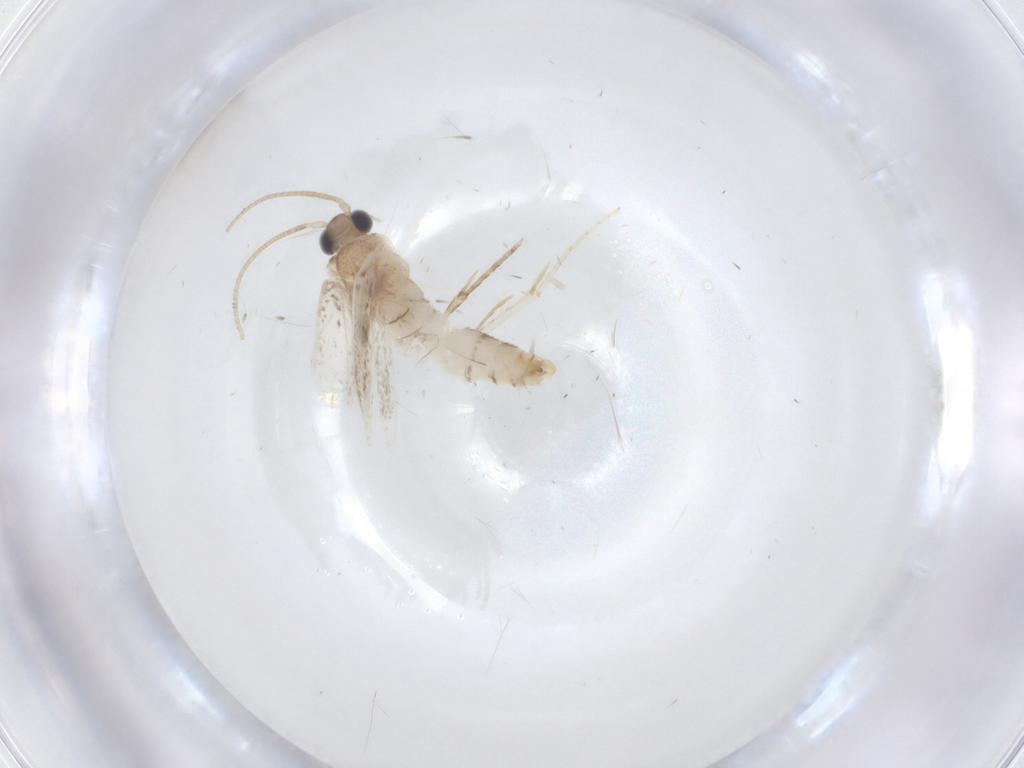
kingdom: Animalia
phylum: Arthropoda
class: Insecta
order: Lepidoptera
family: Dryadaulidae
